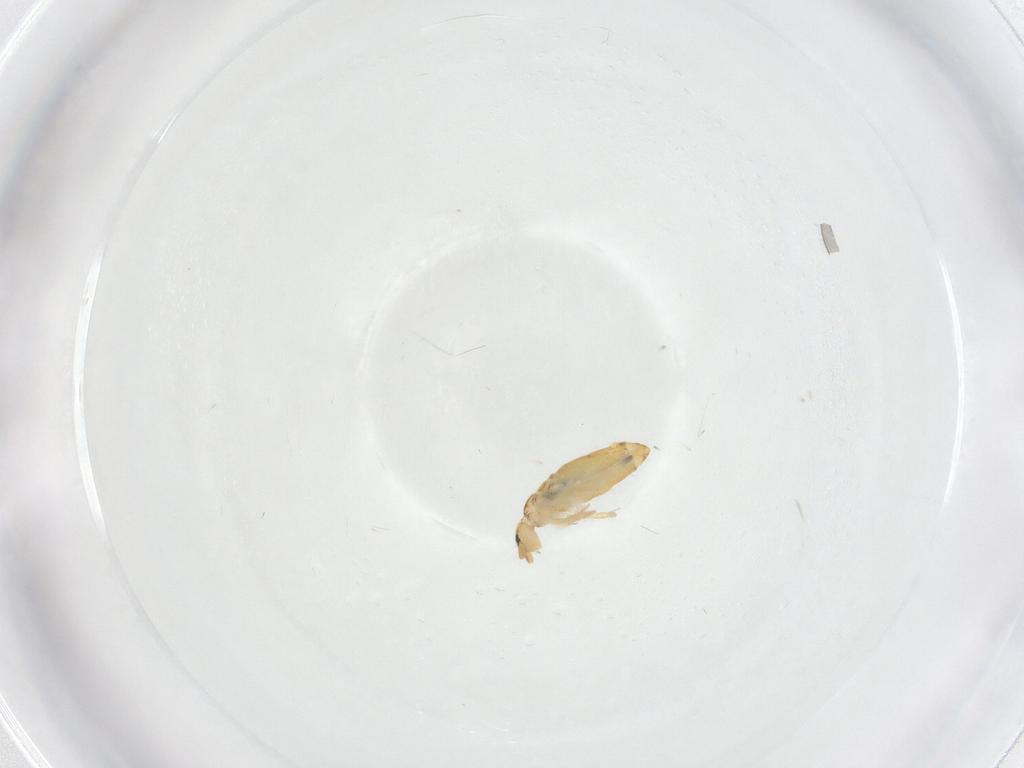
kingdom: Animalia
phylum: Arthropoda
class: Collembola
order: Entomobryomorpha
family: Entomobryidae
